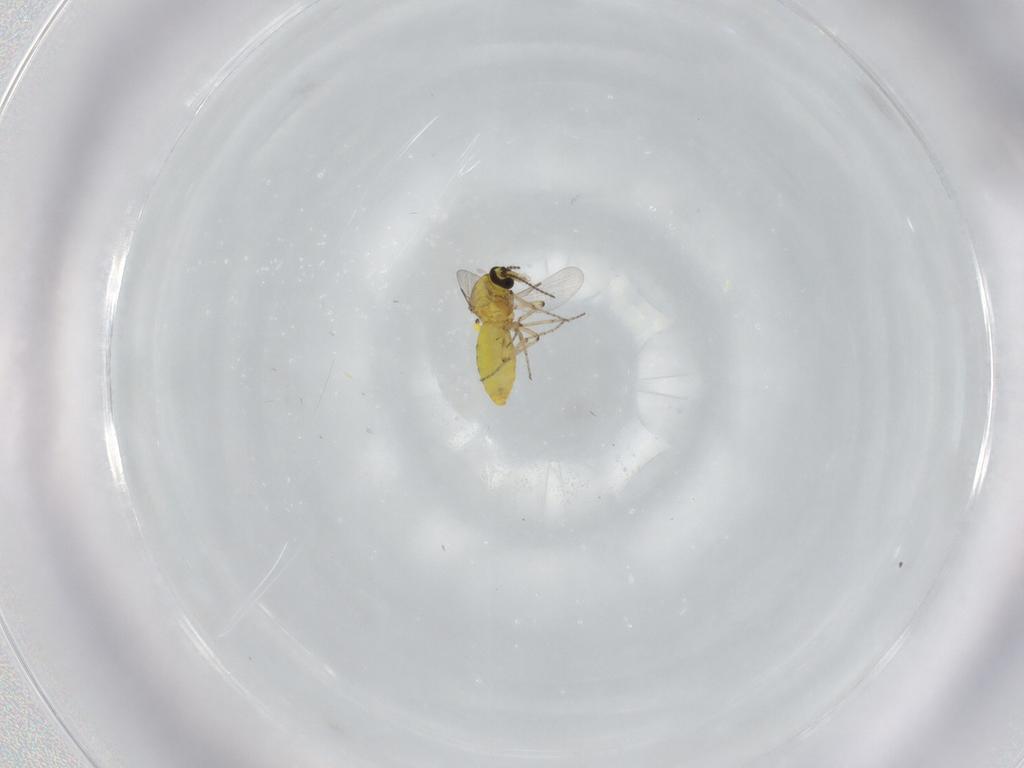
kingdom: Animalia
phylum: Arthropoda
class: Insecta
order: Diptera
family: Ceratopogonidae
